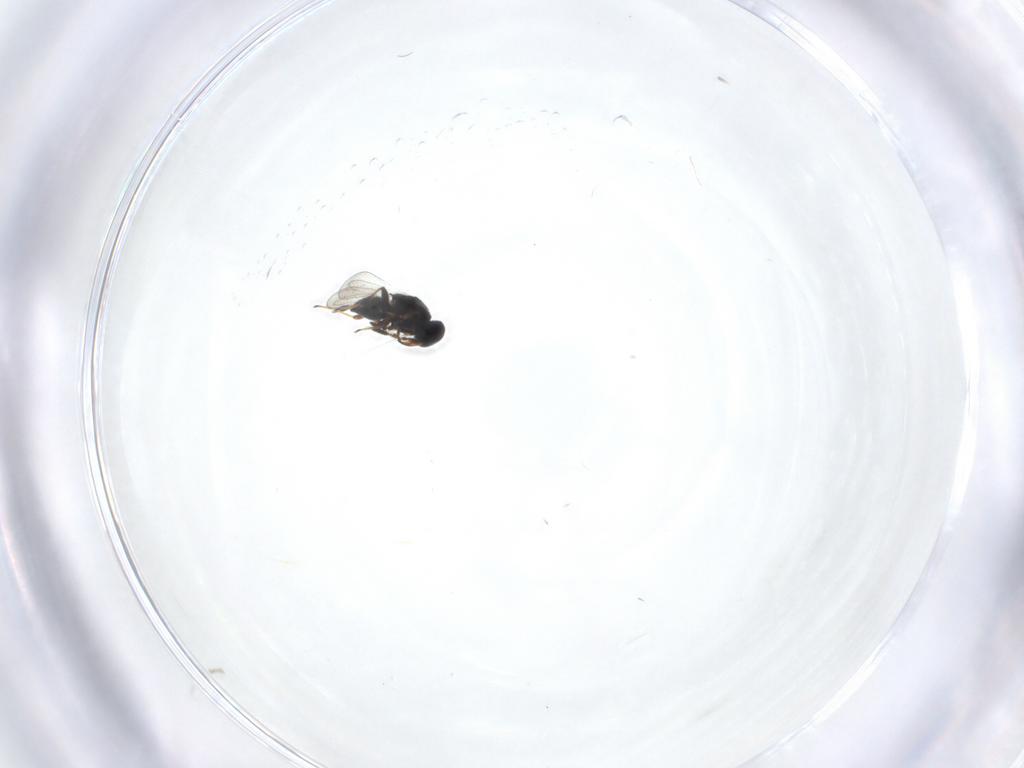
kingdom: Animalia
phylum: Arthropoda
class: Insecta
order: Hymenoptera
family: Platygastridae
